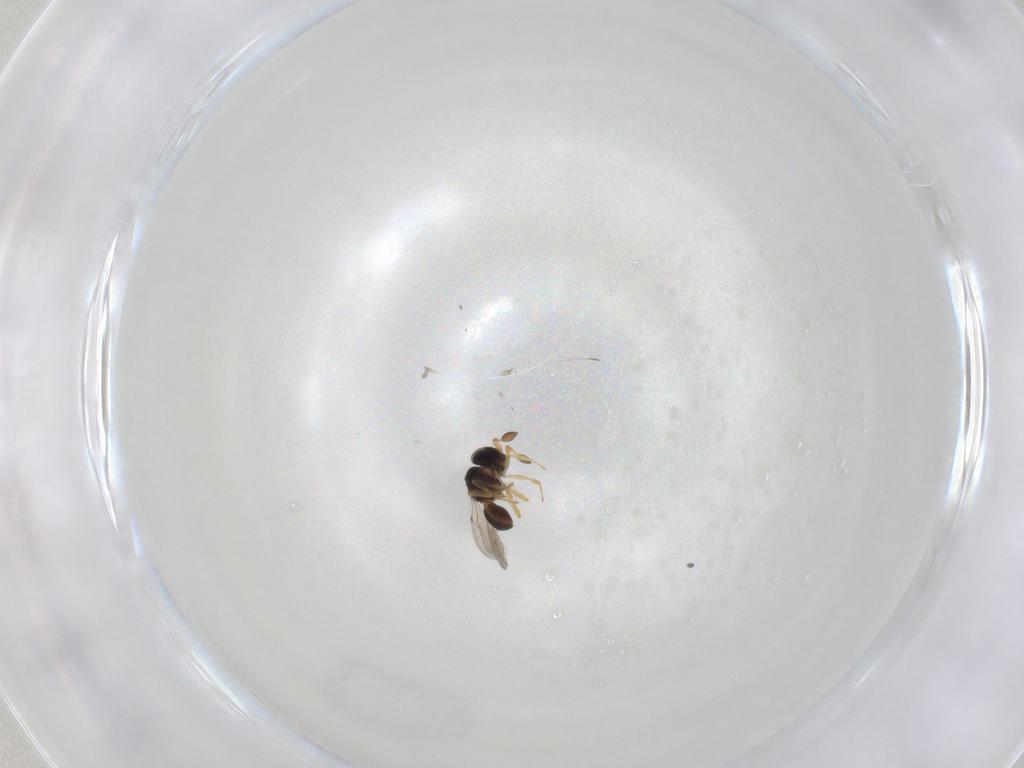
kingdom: Animalia
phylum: Arthropoda
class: Insecta
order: Hymenoptera
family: Scelionidae
